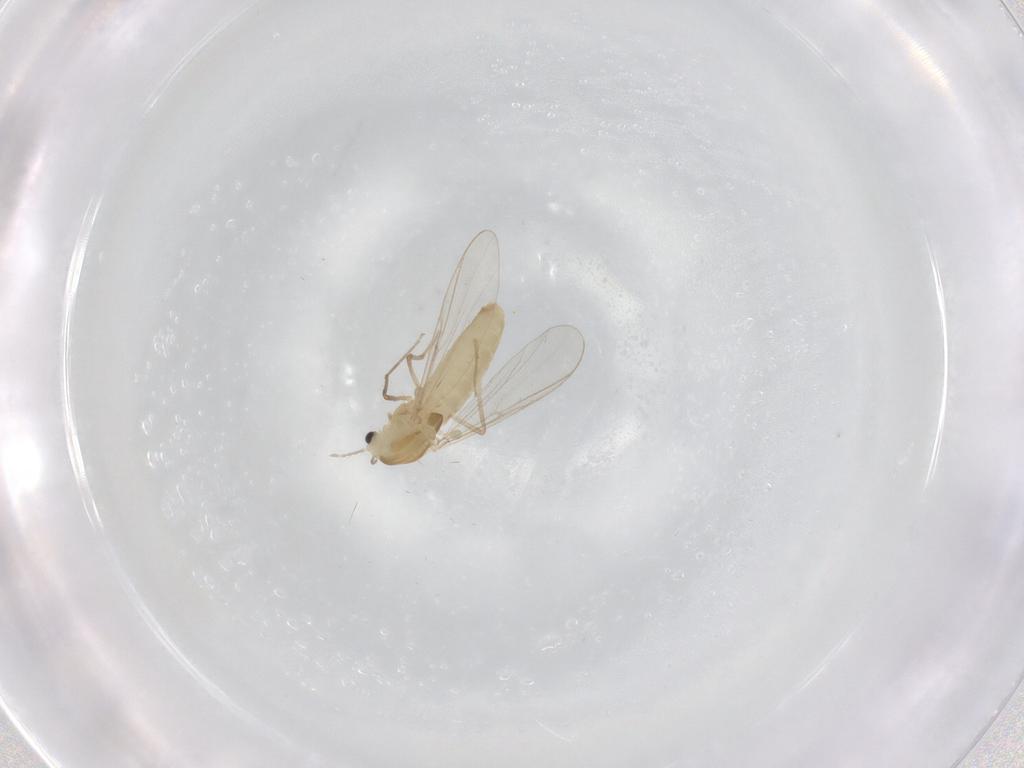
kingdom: Animalia
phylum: Arthropoda
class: Insecta
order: Diptera
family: Chironomidae
